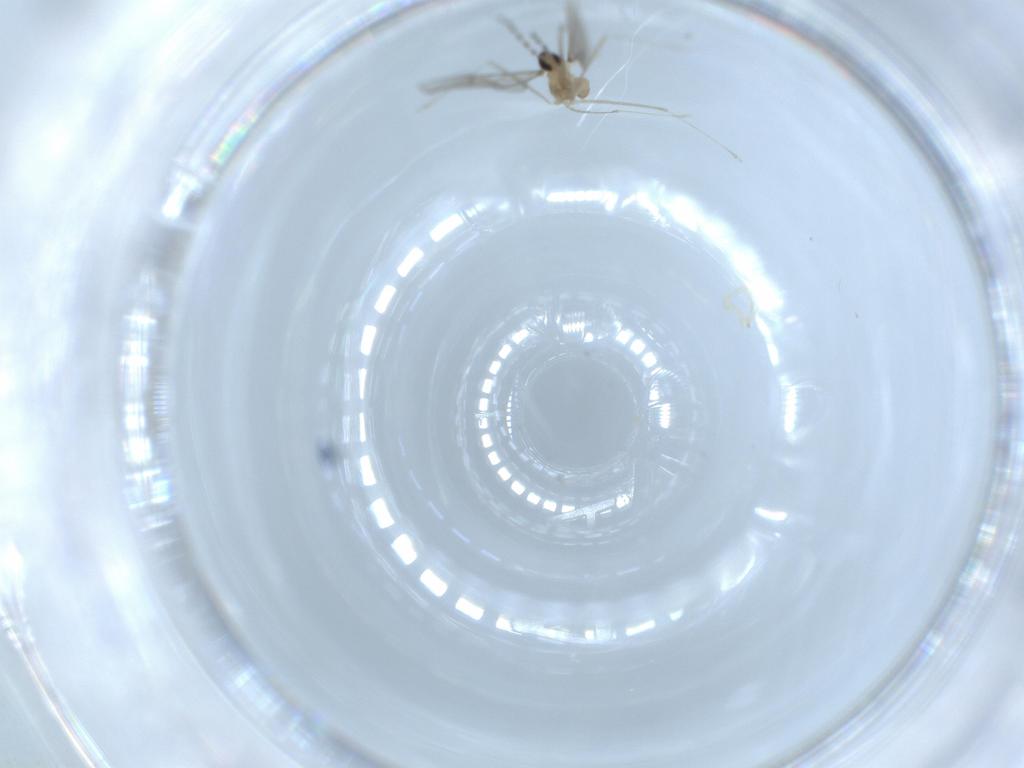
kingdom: Animalia
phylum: Arthropoda
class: Insecta
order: Diptera
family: Cecidomyiidae
